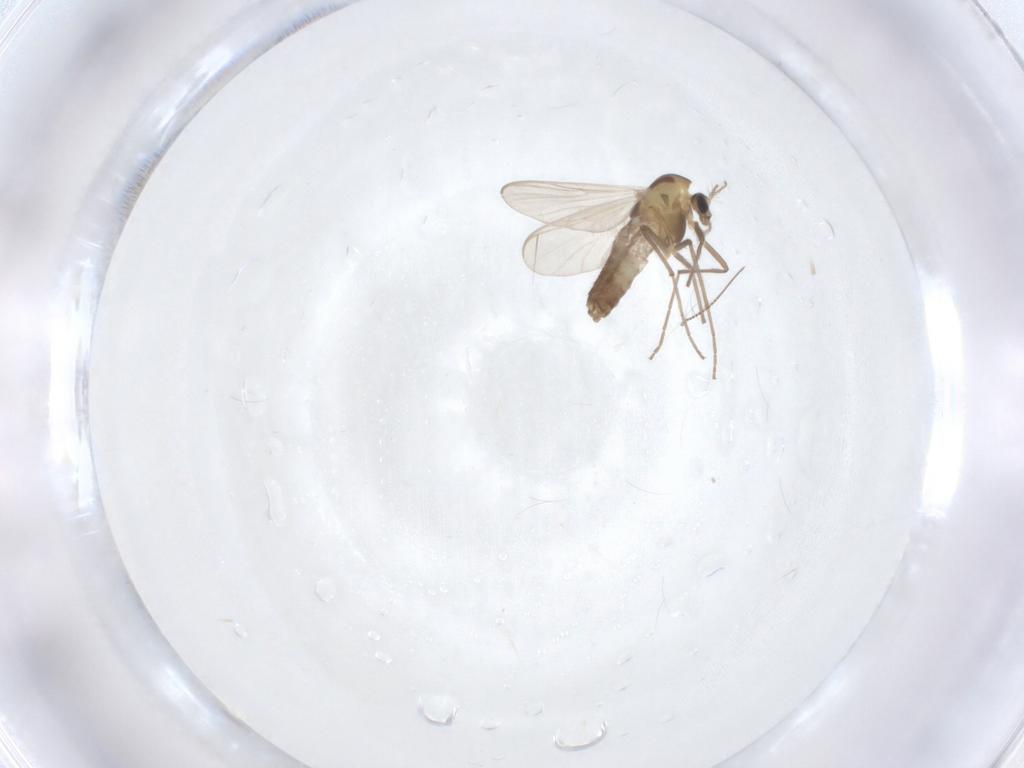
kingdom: Animalia
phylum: Arthropoda
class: Insecta
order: Diptera
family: Chironomidae
